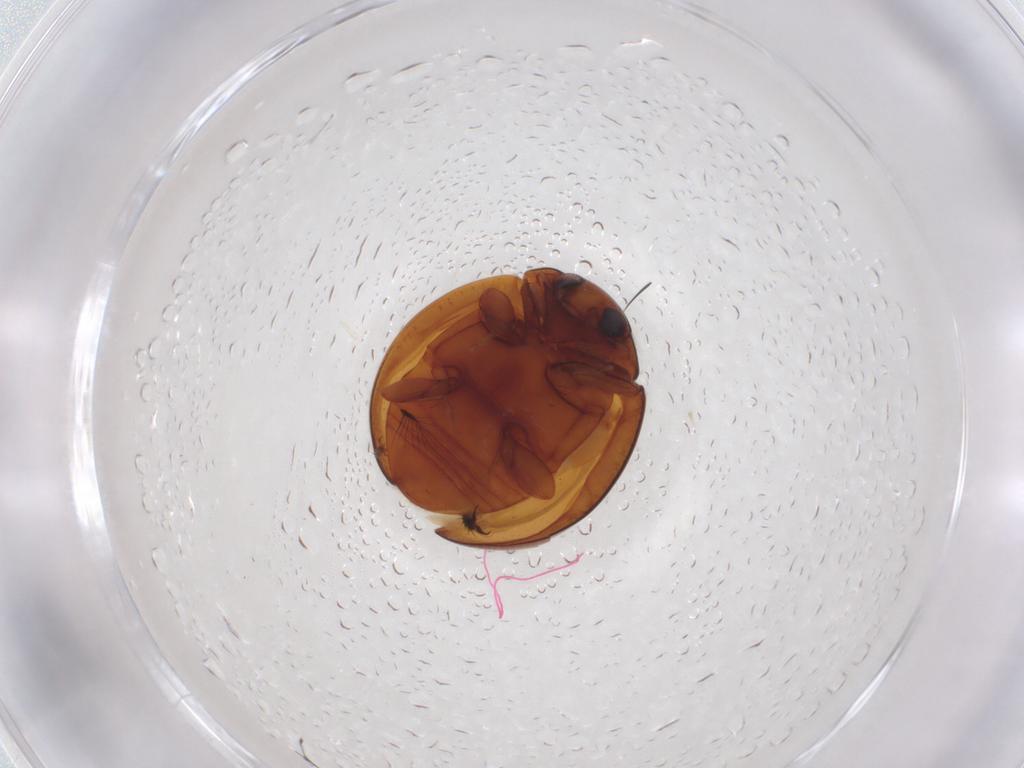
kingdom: Animalia
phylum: Arthropoda
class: Insecta
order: Coleoptera
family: Coccinellidae
